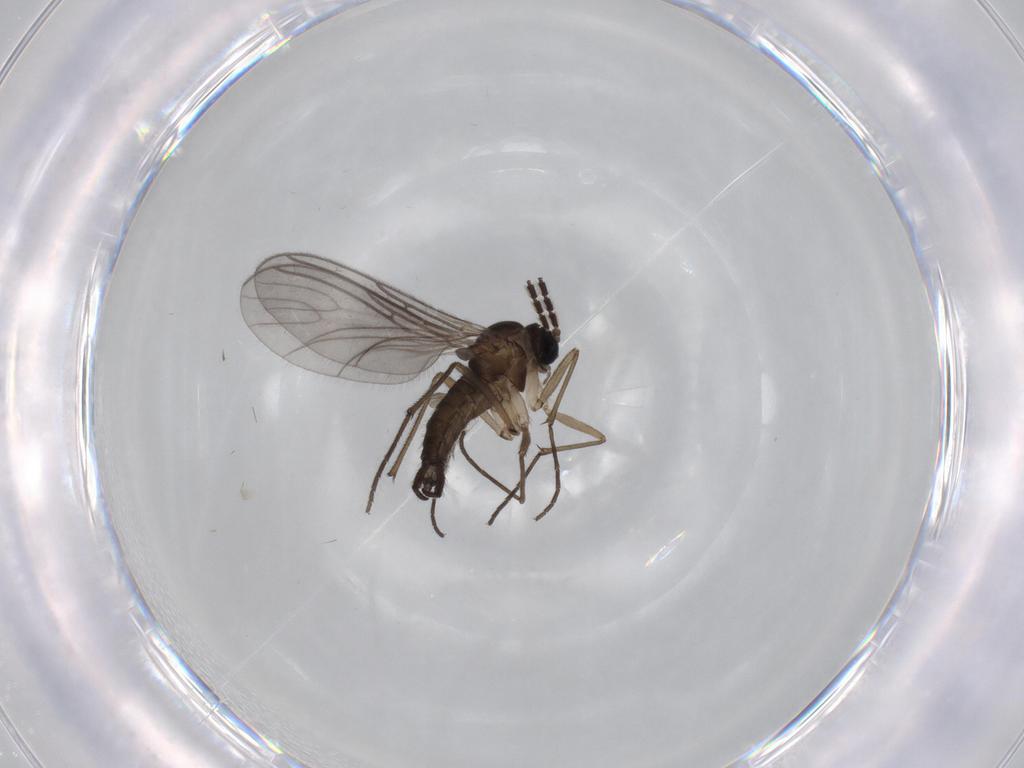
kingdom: Animalia
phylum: Arthropoda
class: Insecta
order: Diptera
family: Sciaridae
